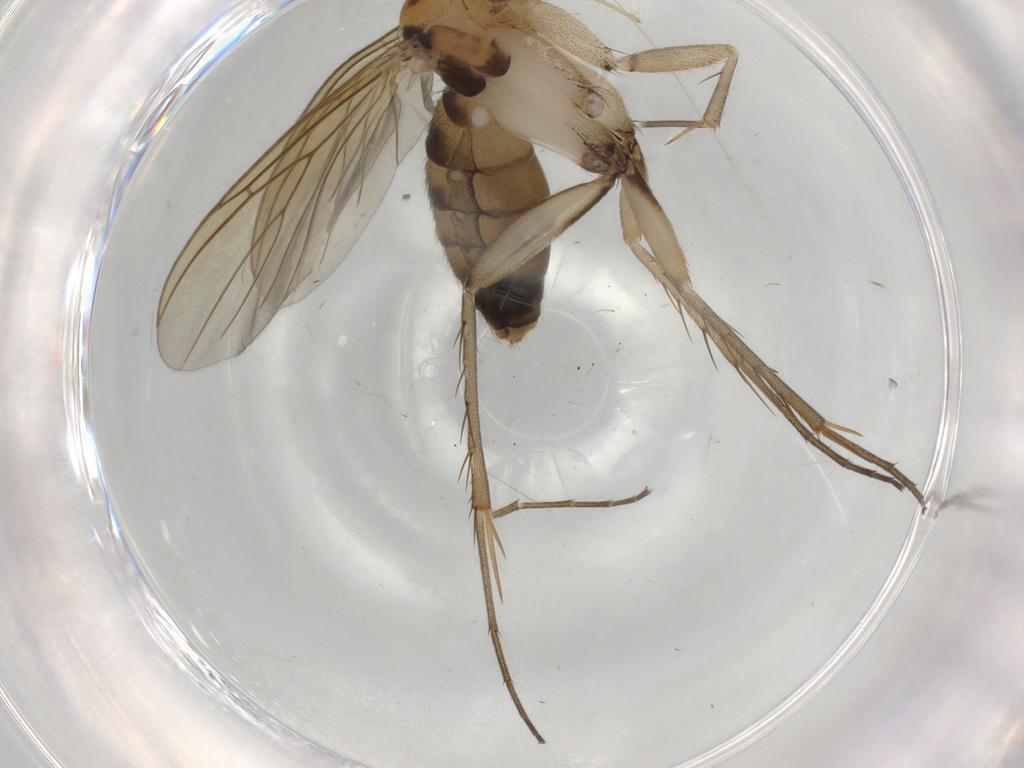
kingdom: Animalia
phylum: Arthropoda
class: Insecta
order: Diptera
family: Mycetophilidae
